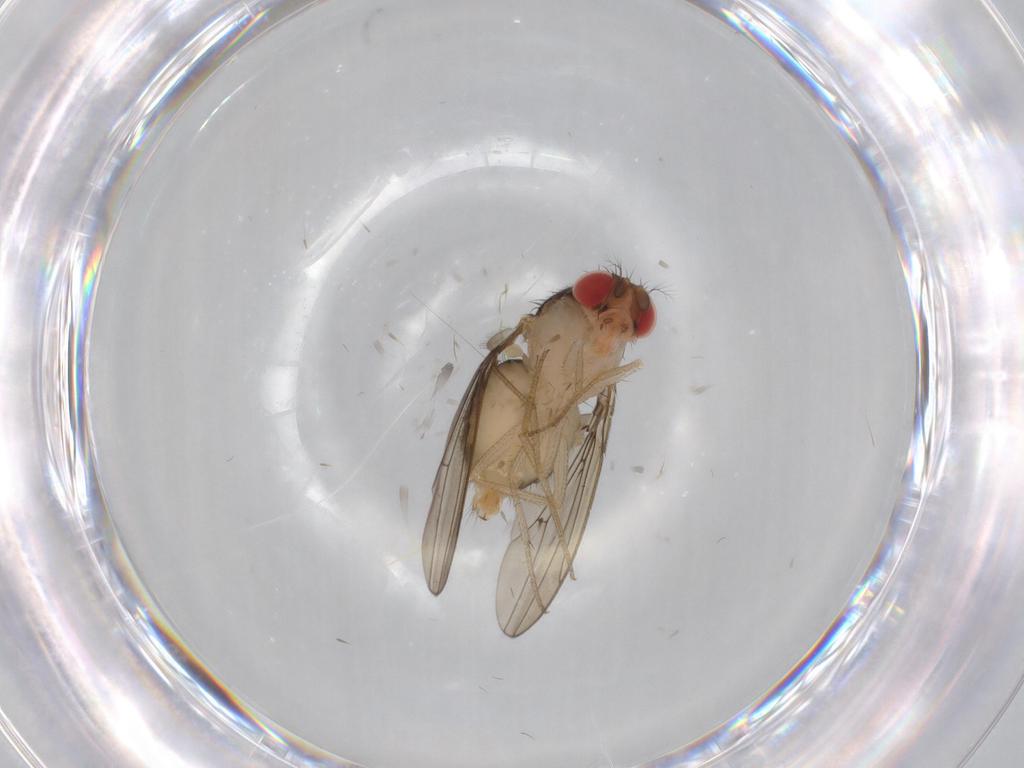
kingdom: Animalia
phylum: Arthropoda
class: Insecta
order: Diptera
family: Drosophilidae
